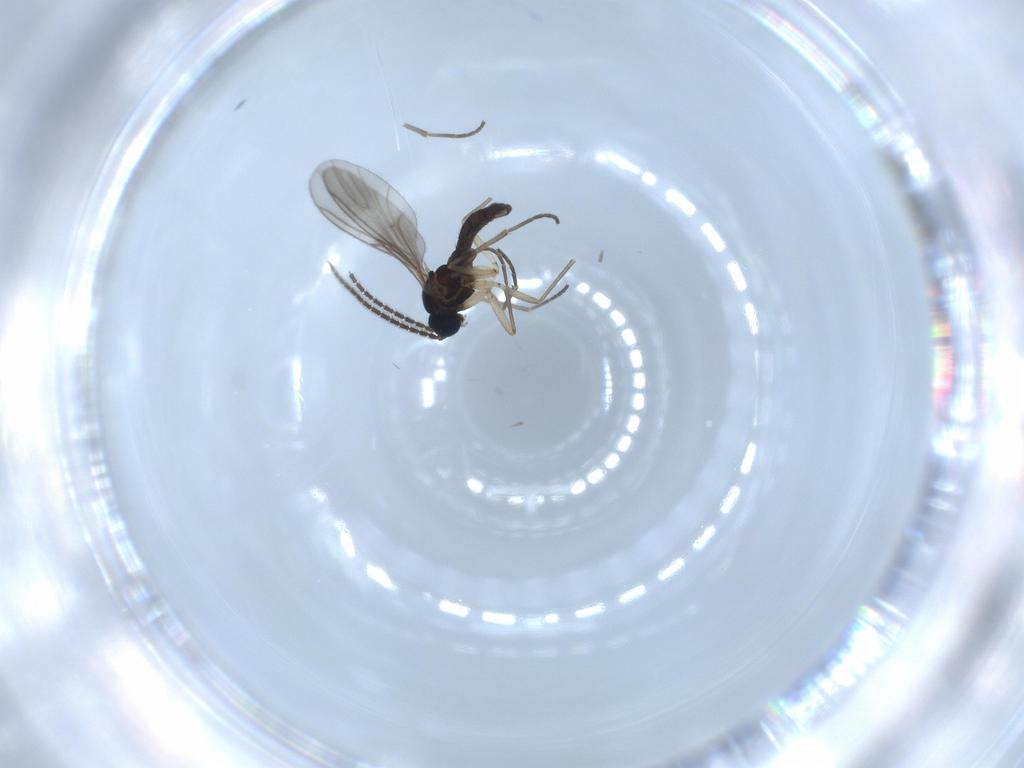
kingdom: Animalia
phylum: Arthropoda
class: Insecta
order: Diptera
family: Sciaridae
